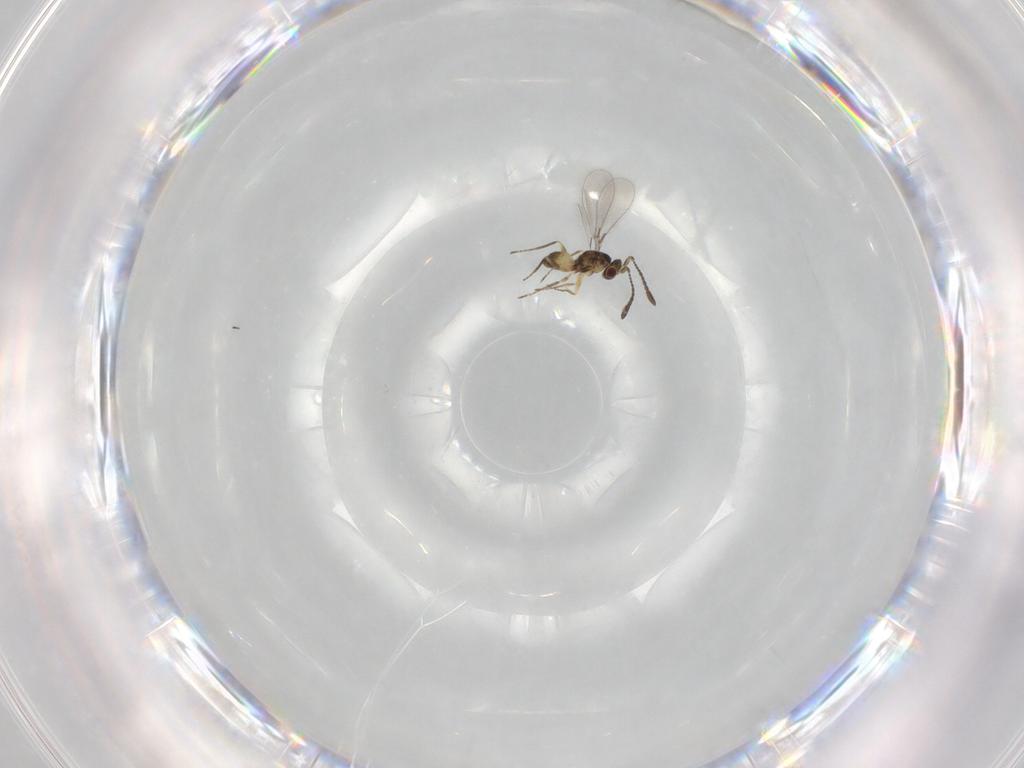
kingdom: Animalia
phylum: Arthropoda
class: Insecta
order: Hymenoptera
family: Mymaridae
